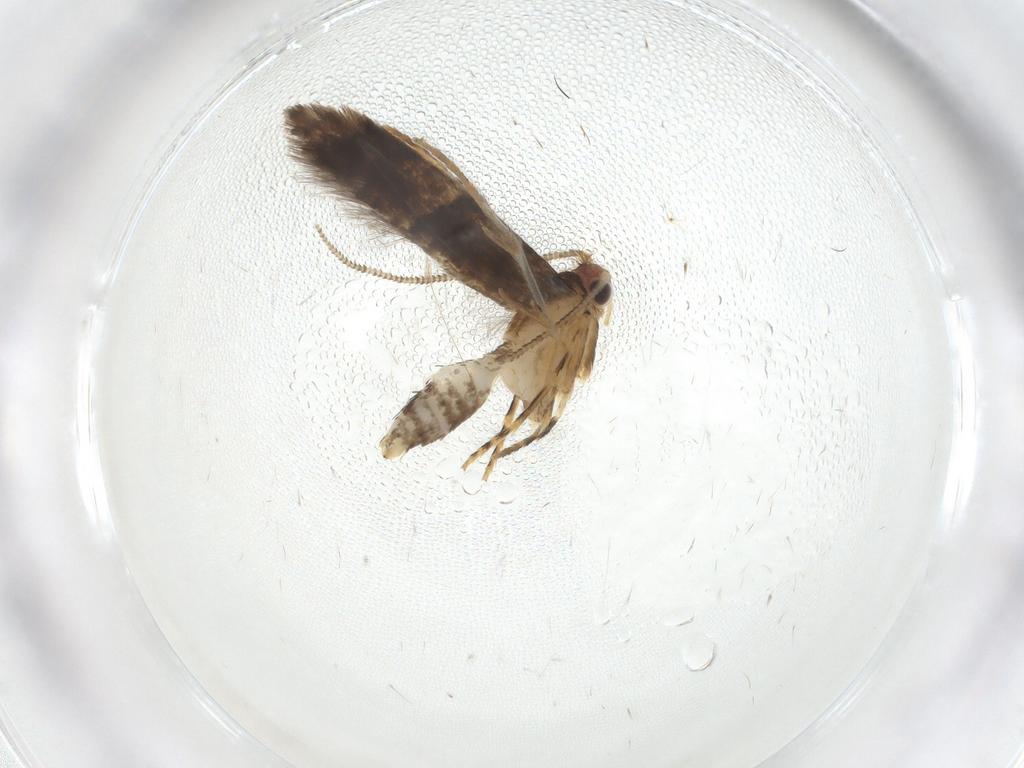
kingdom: Animalia
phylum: Arthropoda
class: Insecta
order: Lepidoptera
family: Tineidae
